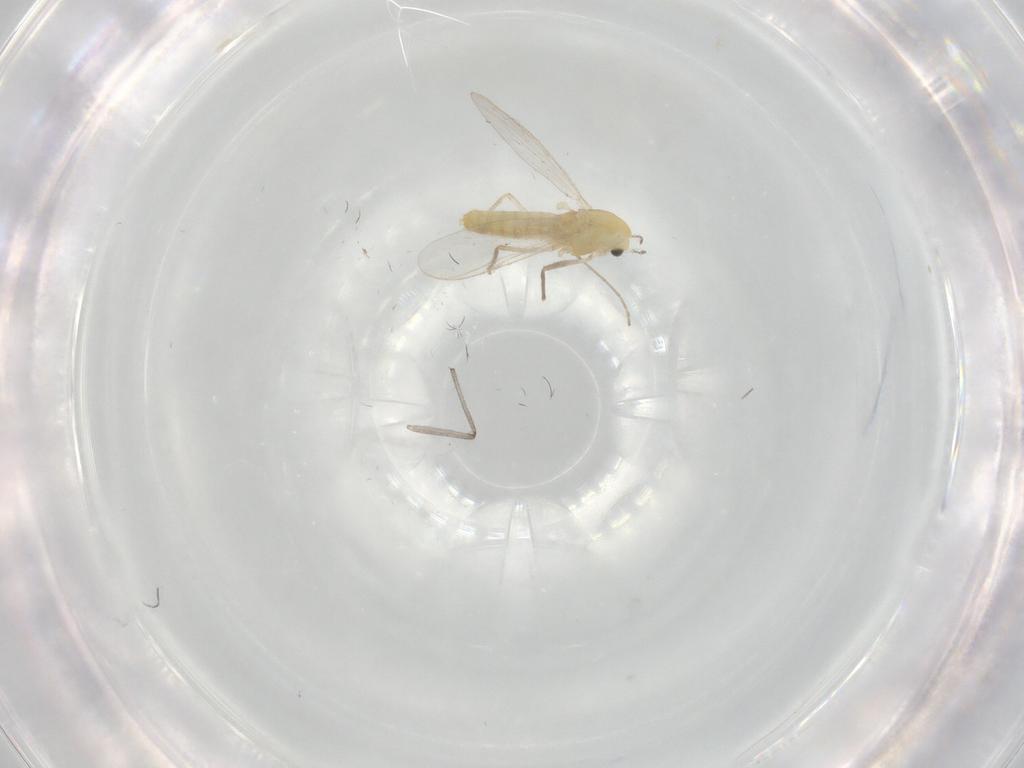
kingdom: Animalia
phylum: Arthropoda
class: Insecta
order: Diptera
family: Chironomidae
